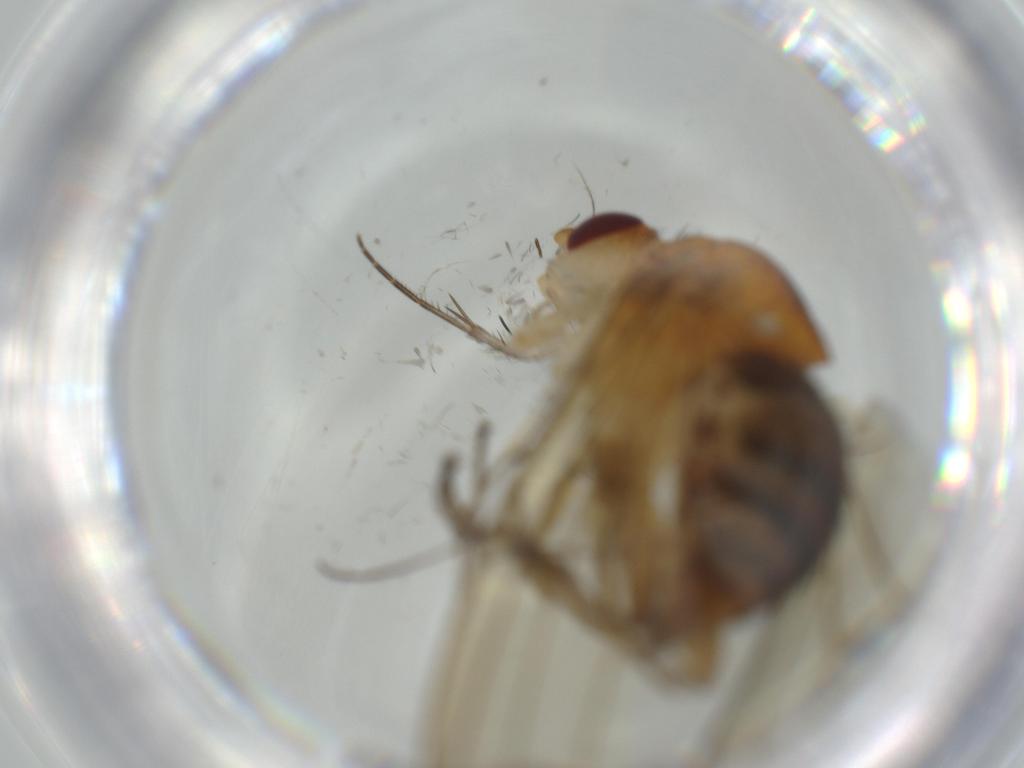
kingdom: Animalia
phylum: Arthropoda
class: Insecta
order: Diptera
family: Heleomyzidae
